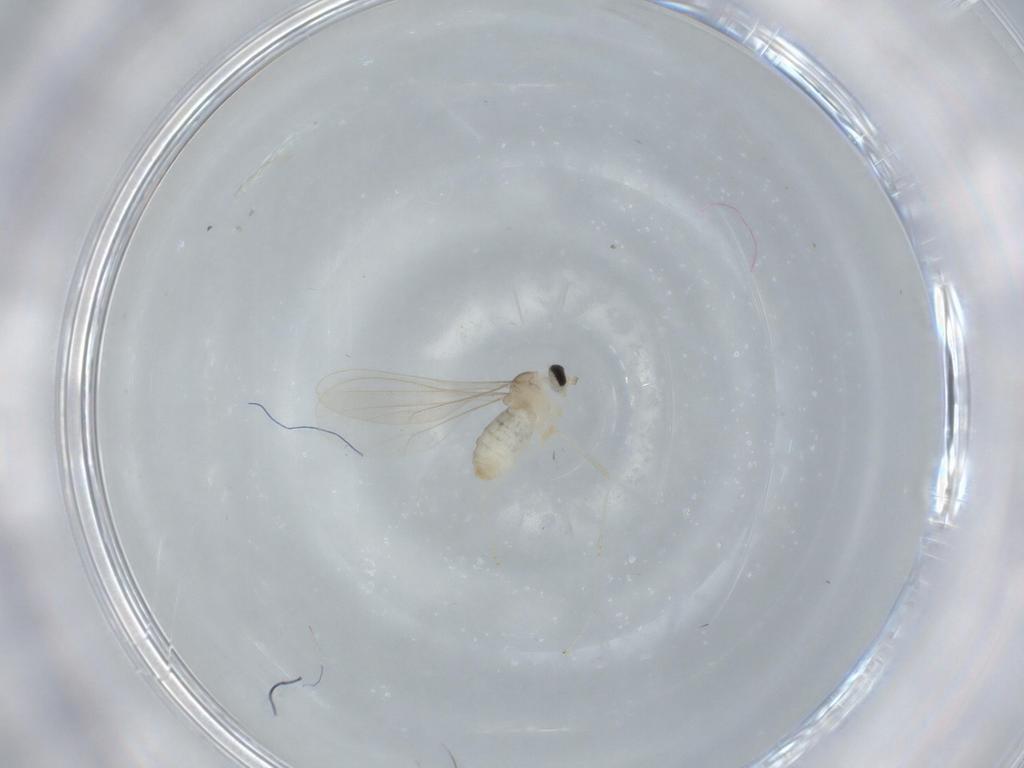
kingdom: Animalia
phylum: Arthropoda
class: Insecta
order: Diptera
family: Cecidomyiidae
